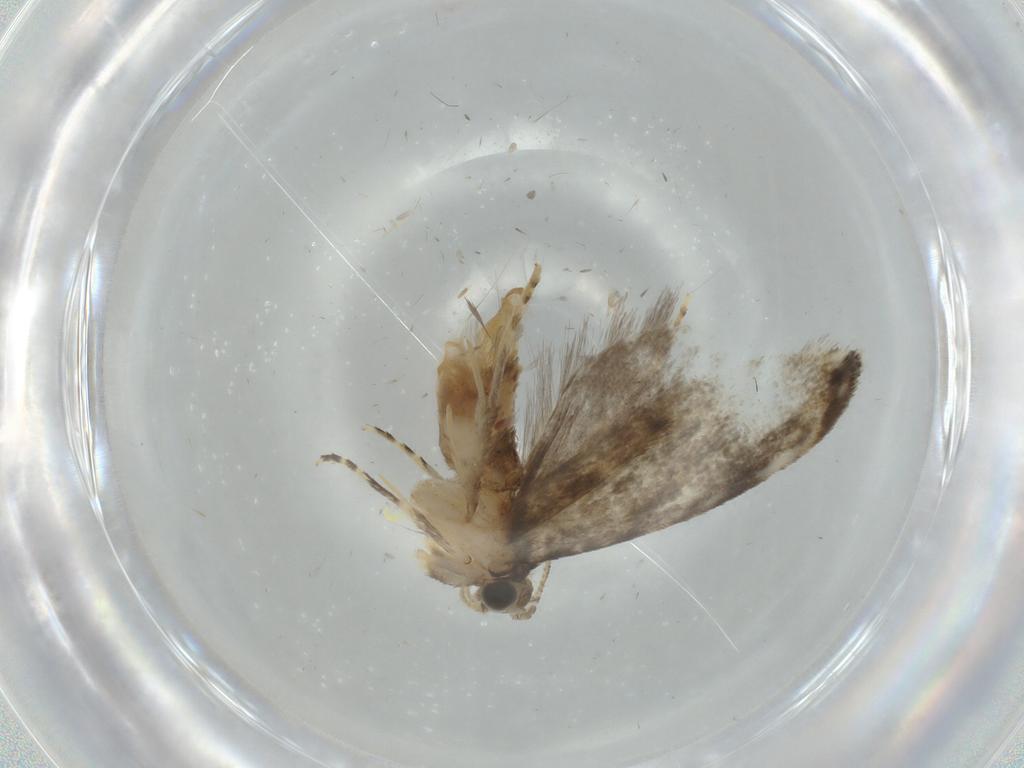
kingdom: Animalia
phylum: Arthropoda
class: Insecta
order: Lepidoptera
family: Tineidae
